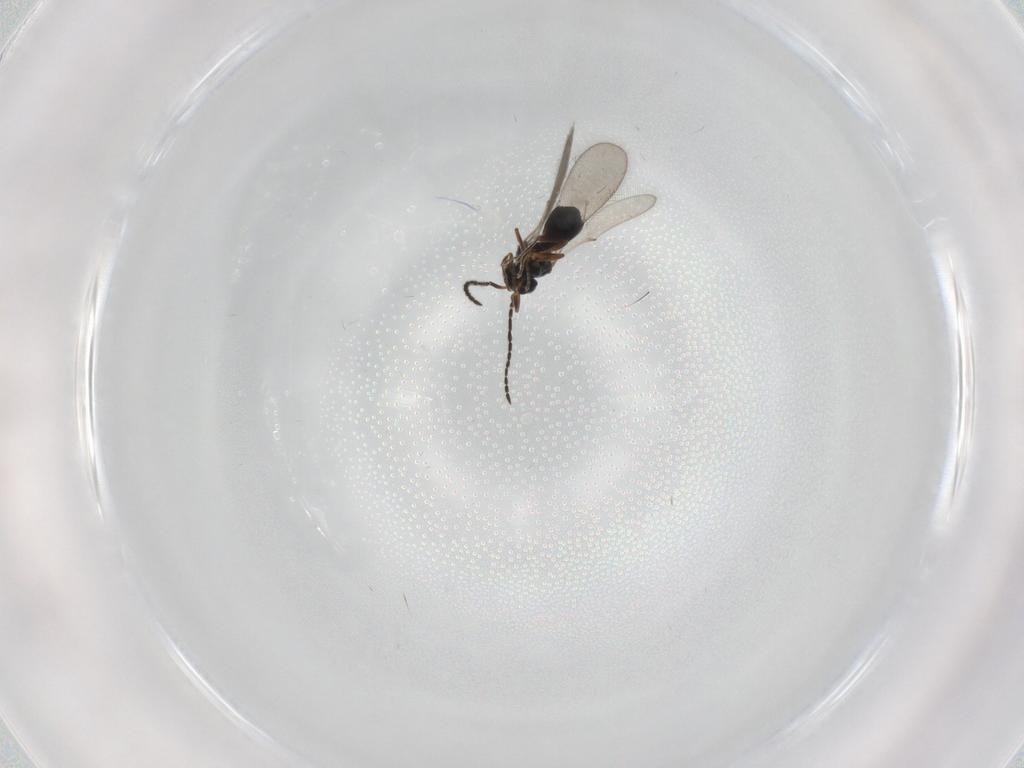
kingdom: Animalia
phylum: Arthropoda
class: Insecta
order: Hymenoptera
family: Scelionidae
